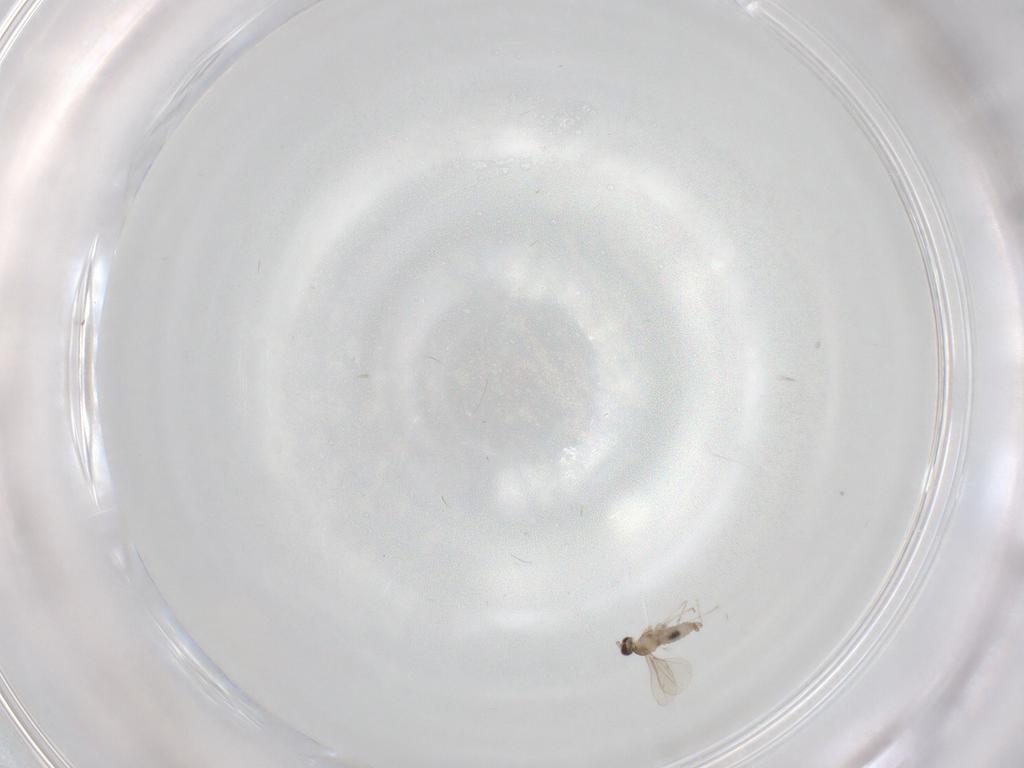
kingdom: Animalia
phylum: Arthropoda
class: Insecta
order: Diptera
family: Cecidomyiidae
